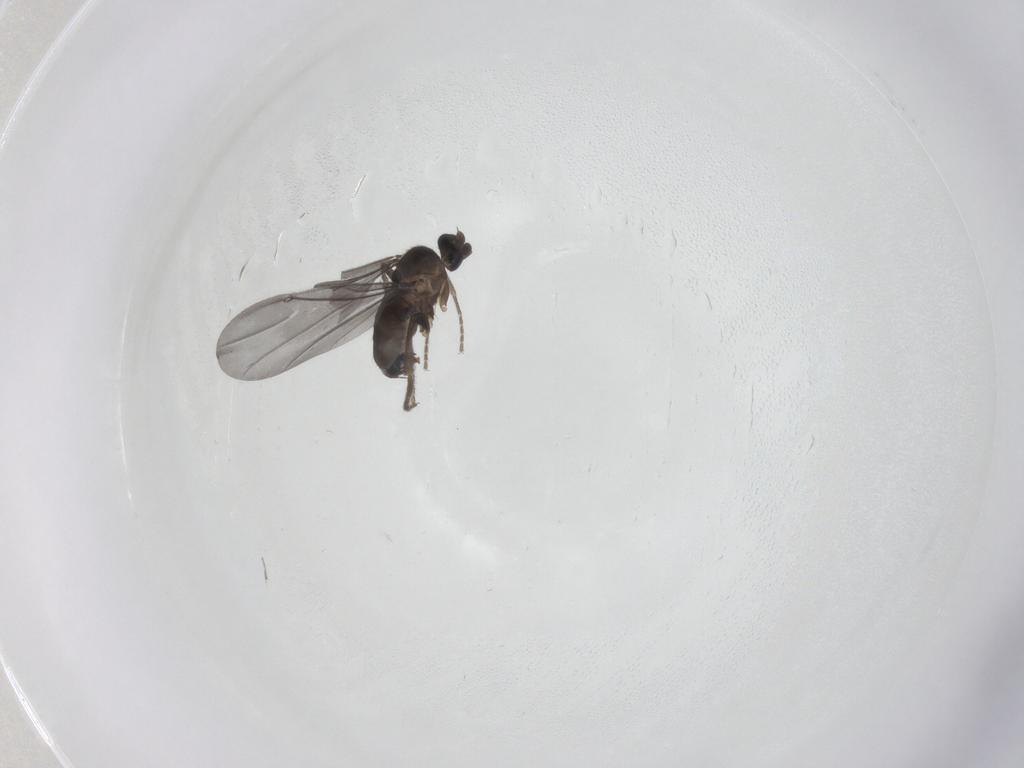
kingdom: Animalia
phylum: Arthropoda
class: Insecta
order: Diptera
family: Phoridae
